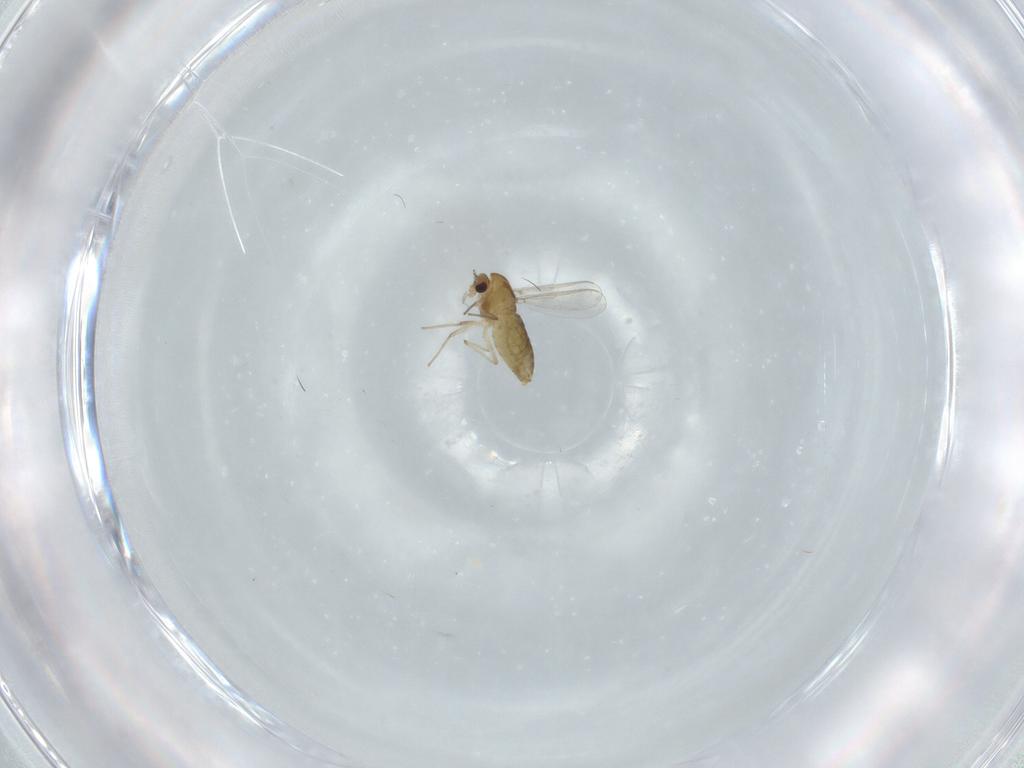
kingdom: Animalia
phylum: Arthropoda
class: Insecta
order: Diptera
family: Chironomidae
